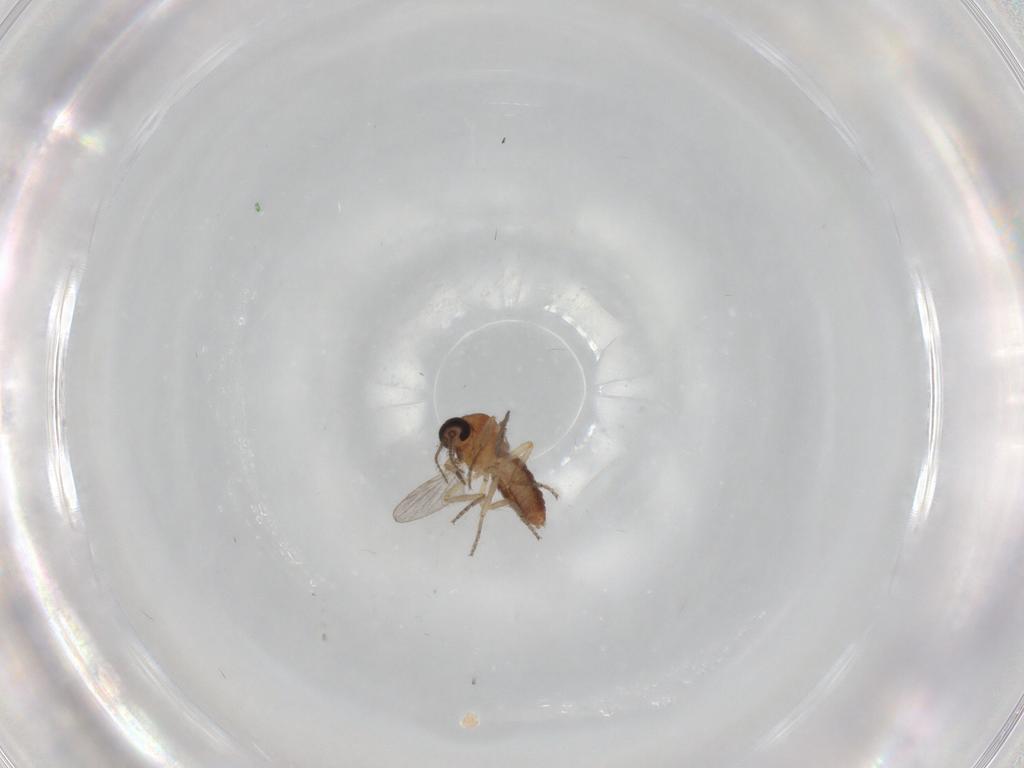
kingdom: Animalia
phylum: Arthropoda
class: Insecta
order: Diptera
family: Ceratopogonidae
